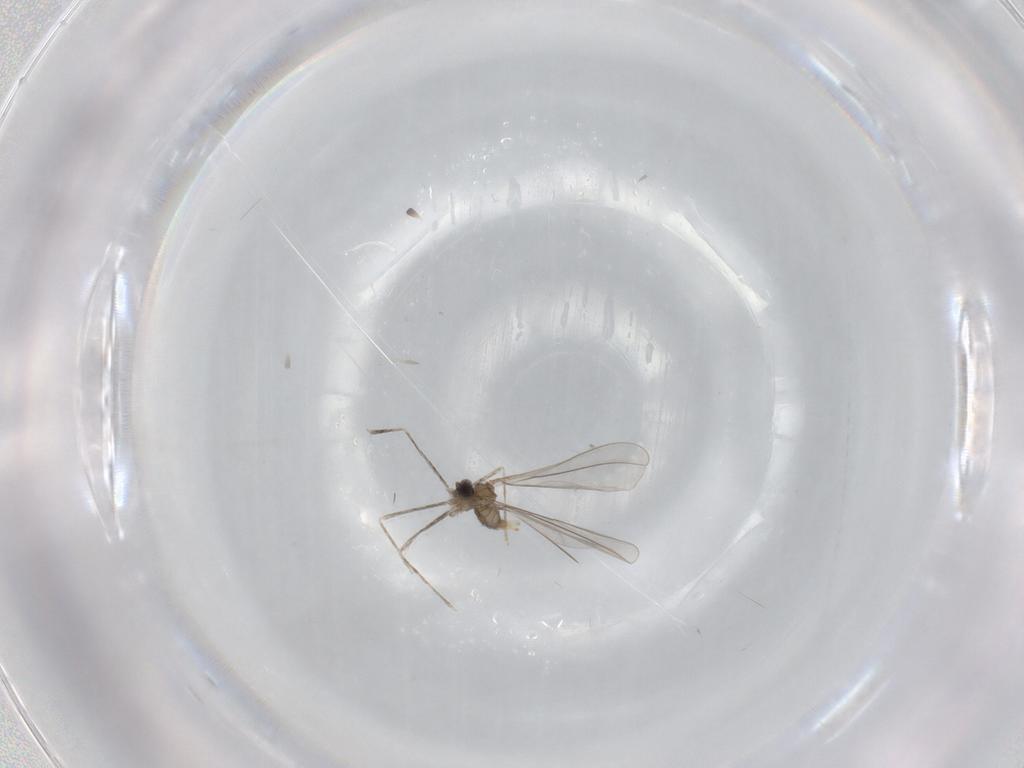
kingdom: Animalia
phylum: Arthropoda
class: Insecta
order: Diptera
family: Cecidomyiidae
